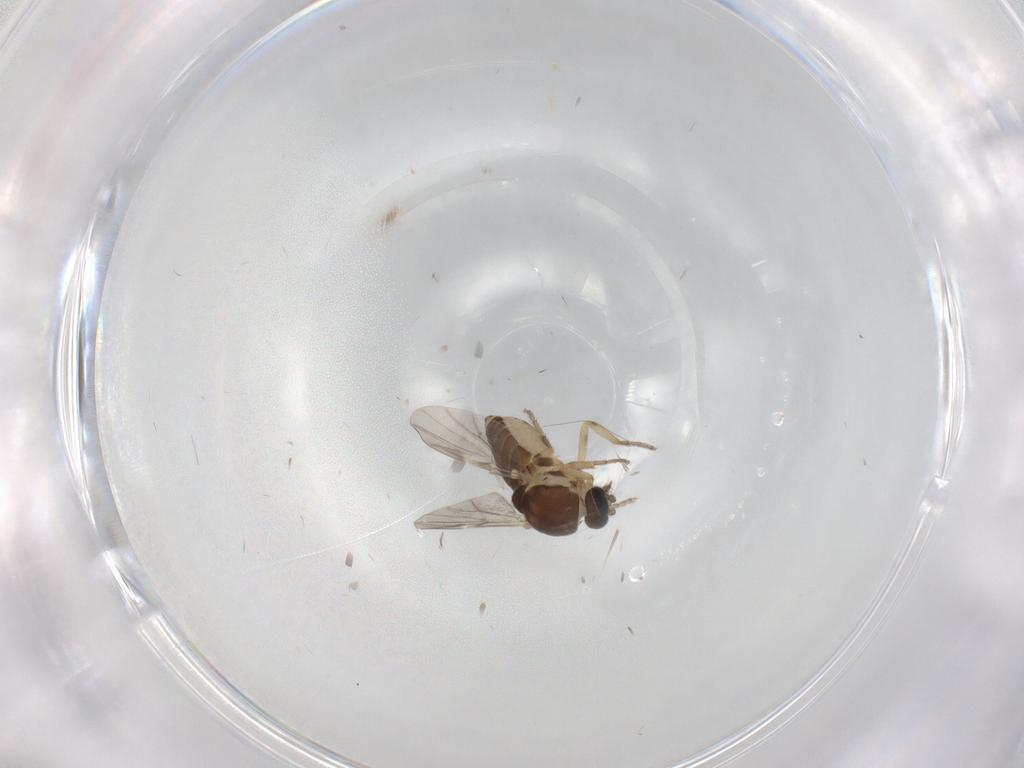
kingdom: Animalia
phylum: Arthropoda
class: Insecta
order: Diptera
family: Ceratopogonidae
